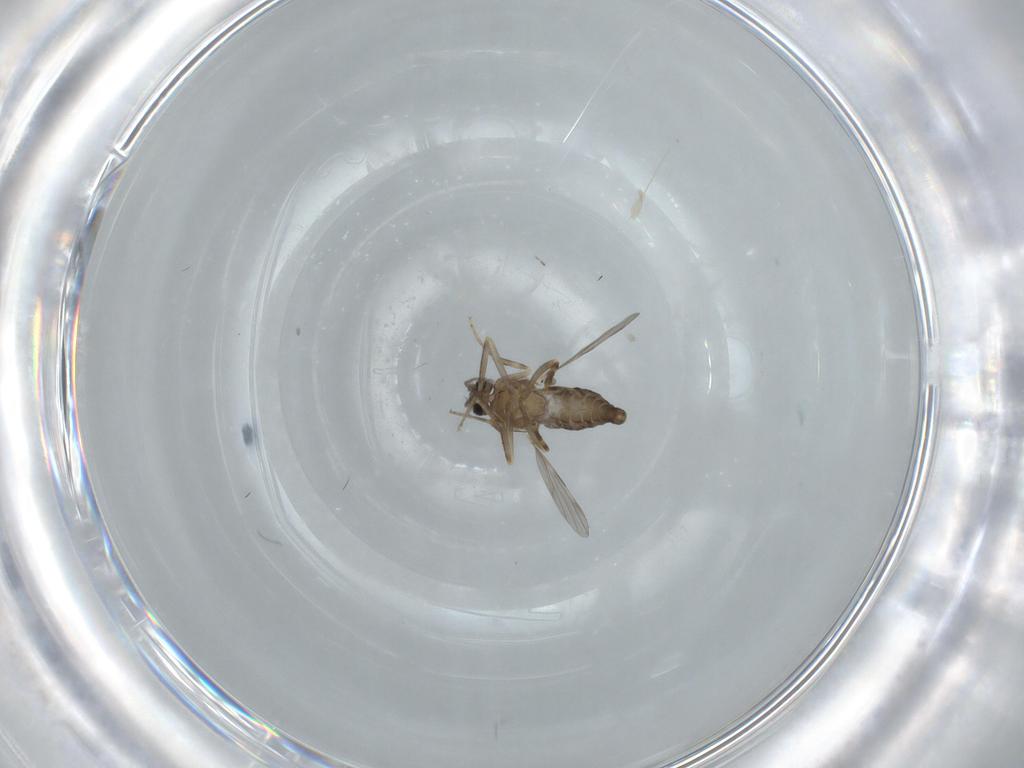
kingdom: Animalia
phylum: Arthropoda
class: Insecta
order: Diptera
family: Ceratopogonidae
